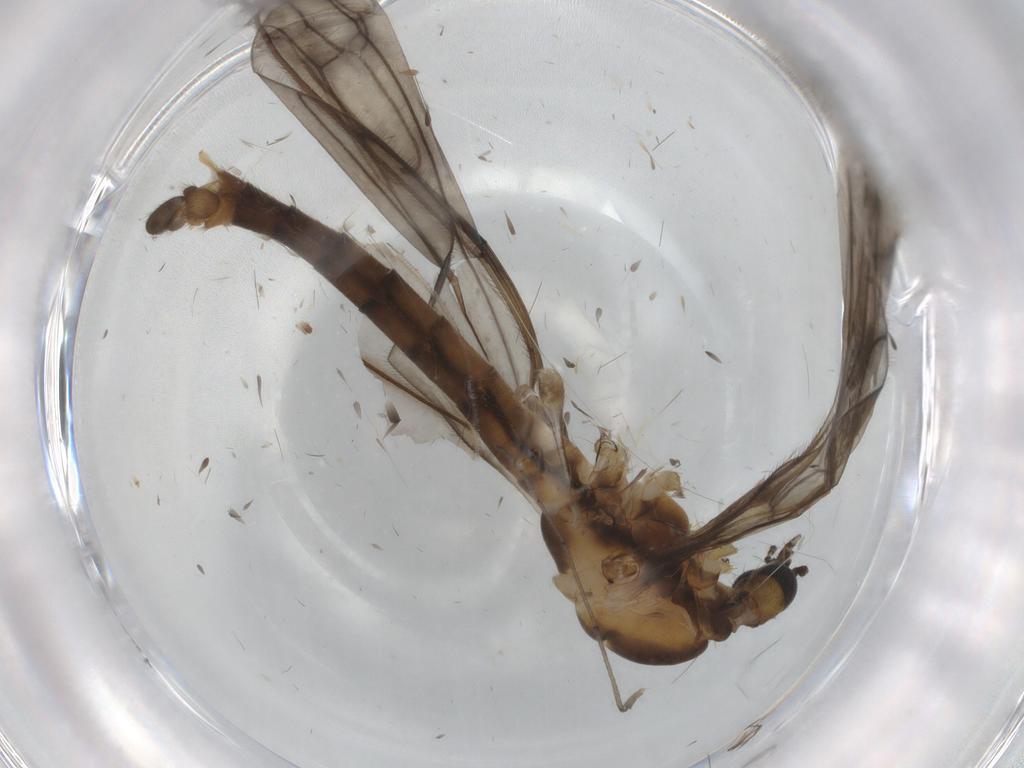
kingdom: Animalia
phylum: Arthropoda
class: Insecta
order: Diptera
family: Limoniidae
